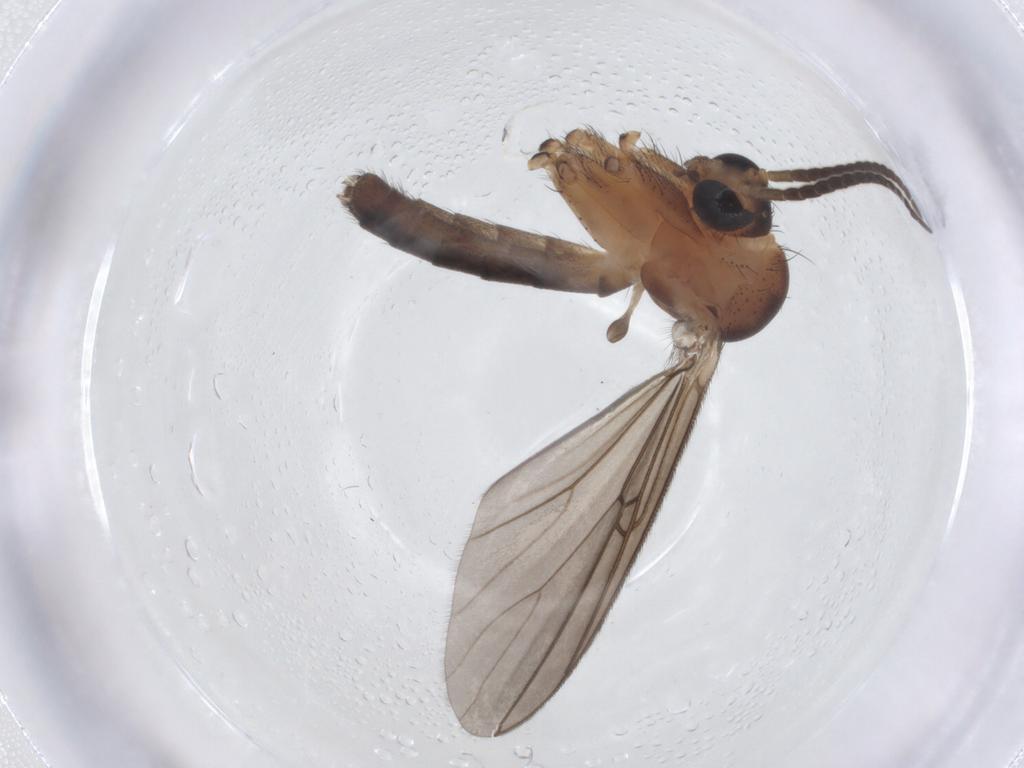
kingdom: Animalia
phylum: Arthropoda
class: Insecta
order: Diptera
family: Mycetophilidae
